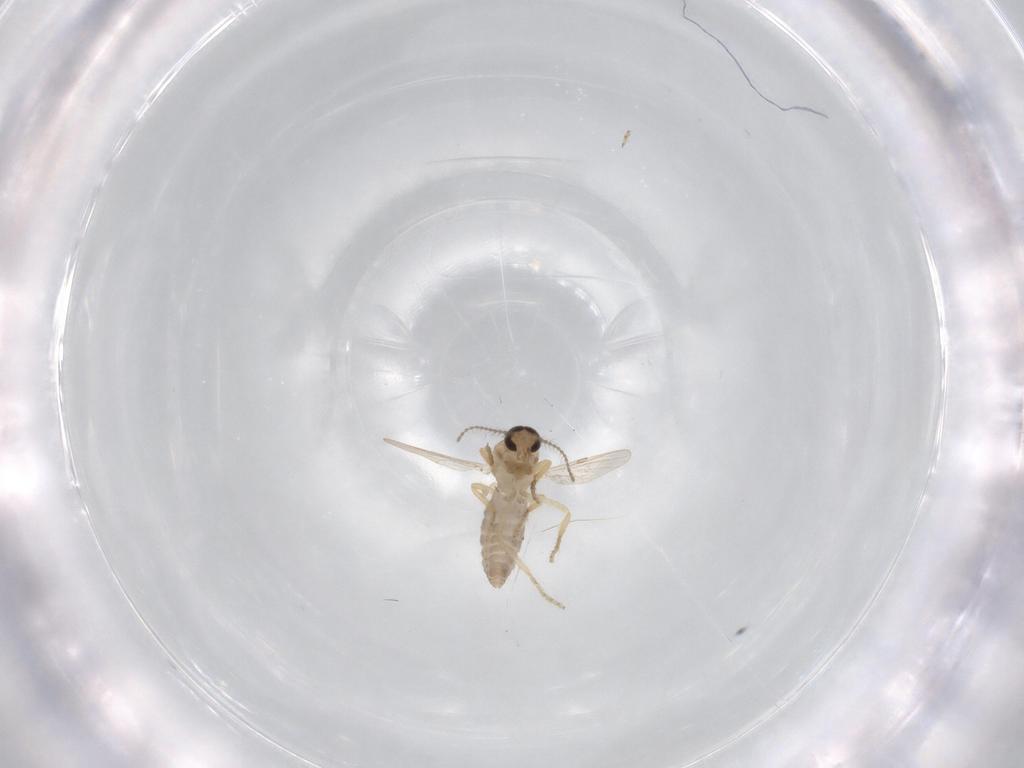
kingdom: Animalia
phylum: Arthropoda
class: Insecta
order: Diptera
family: Ceratopogonidae
